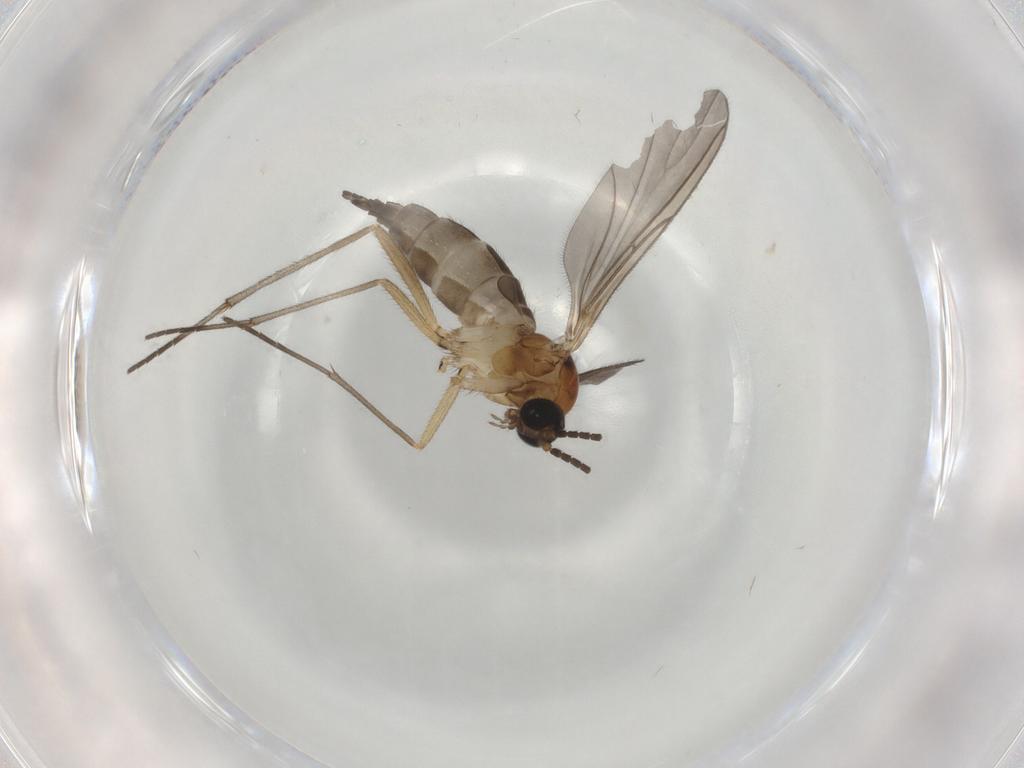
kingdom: Animalia
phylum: Arthropoda
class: Insecta
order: Diptera
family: Sciaridae
